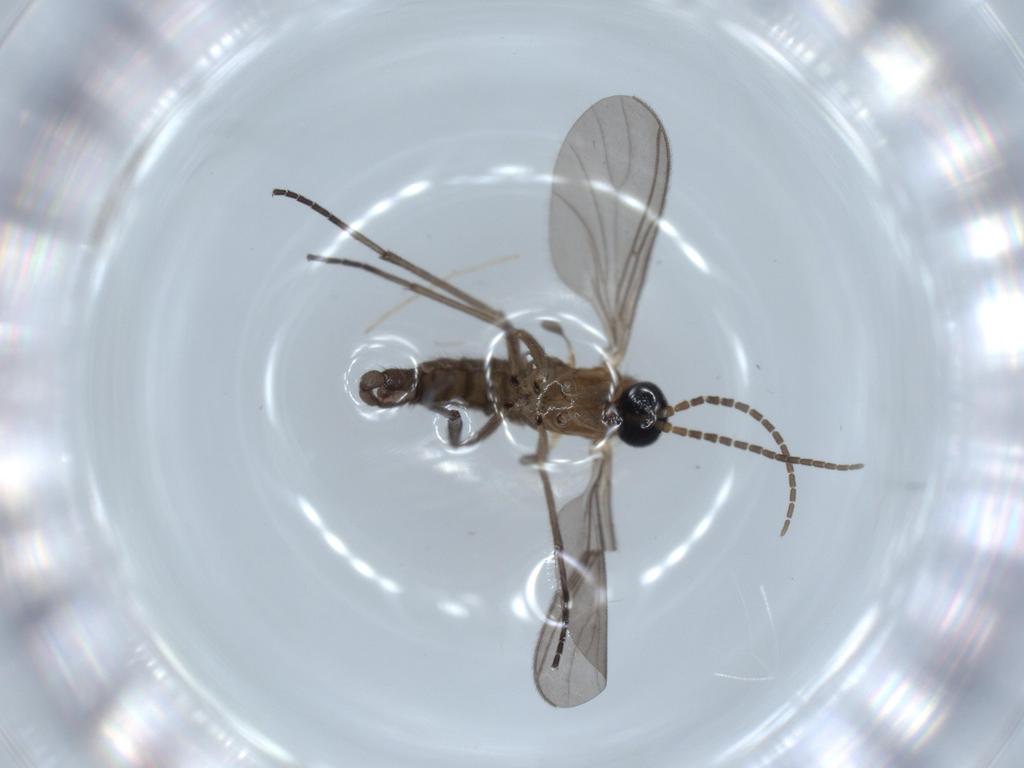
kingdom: Animalia
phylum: Arthropoda
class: Insecta
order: Diptera
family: Sciaridae
